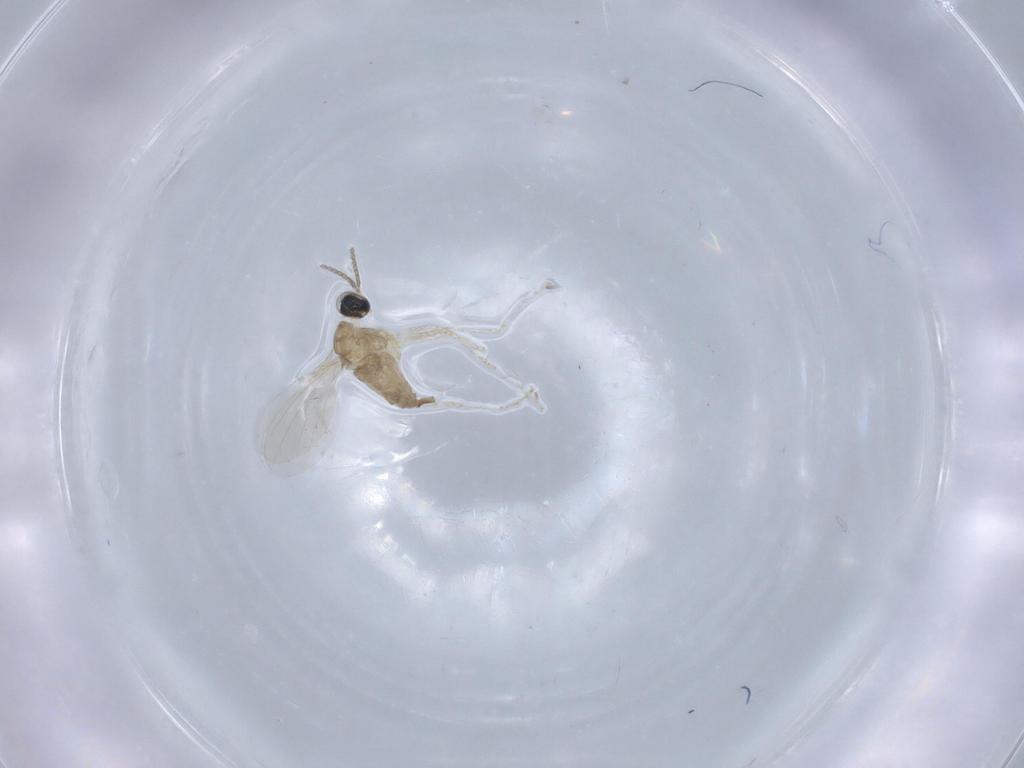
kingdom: Animalia
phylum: Arthropoda
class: Insecta
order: Diptera
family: Cecidomyiidae
